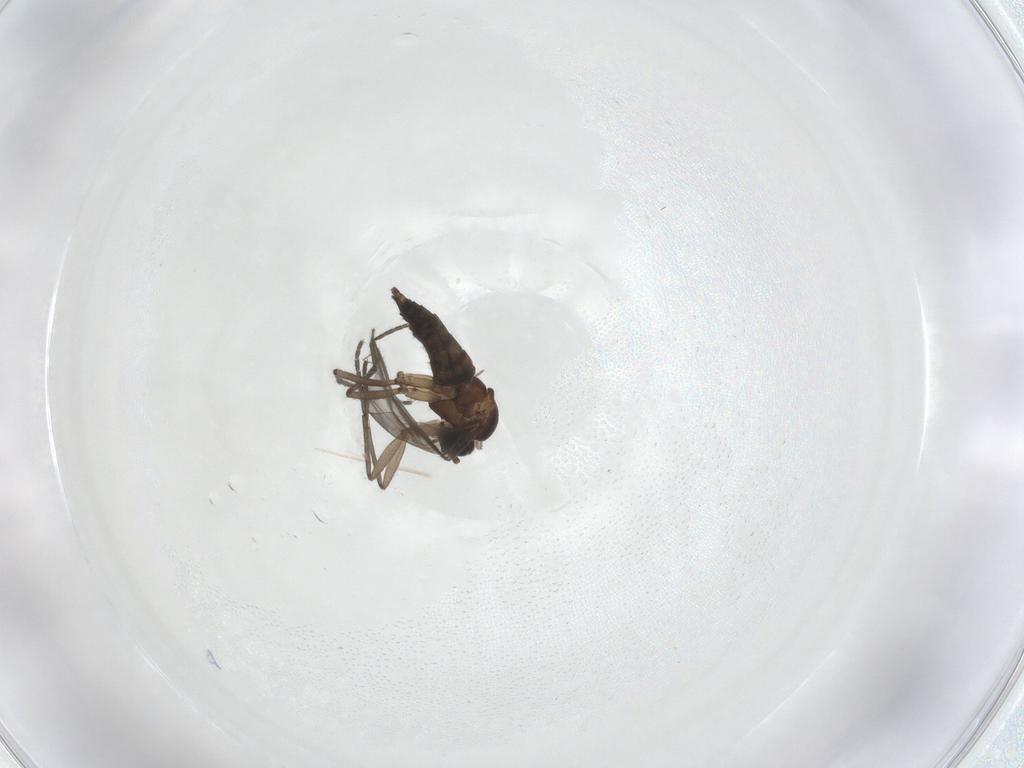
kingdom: Animalia
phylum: Arthropoda
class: Insecta
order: Diptera
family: Sciaridae
